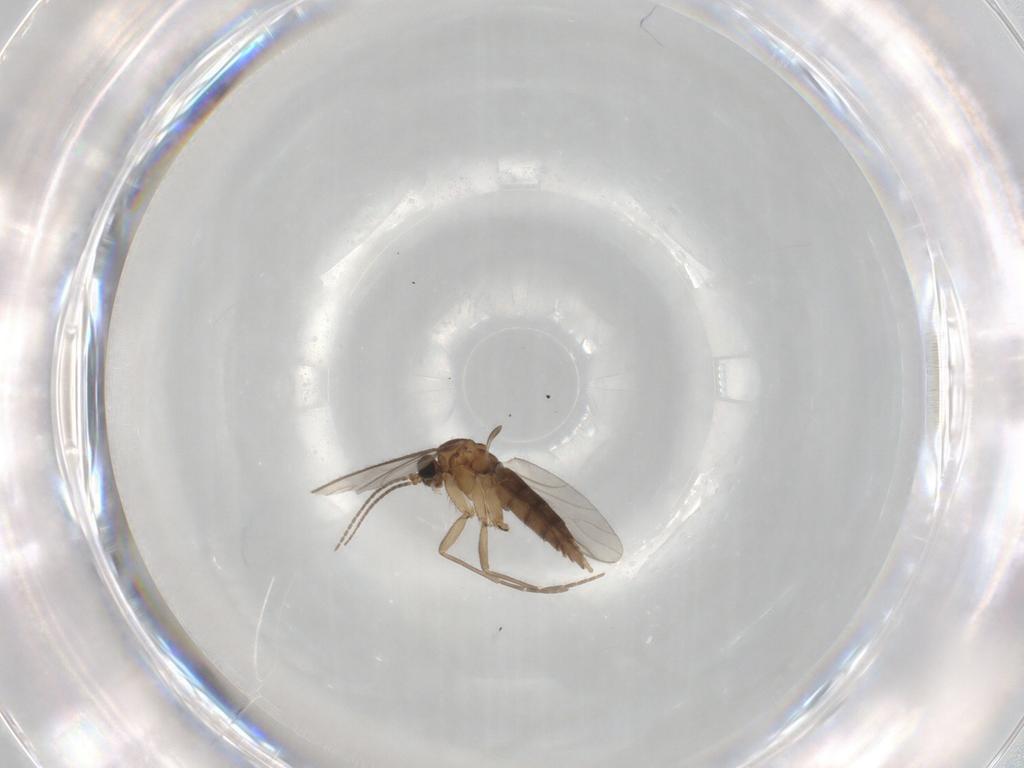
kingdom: Animalia
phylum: Arthropoda
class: Insecta
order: Diptera
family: Sciaridae
